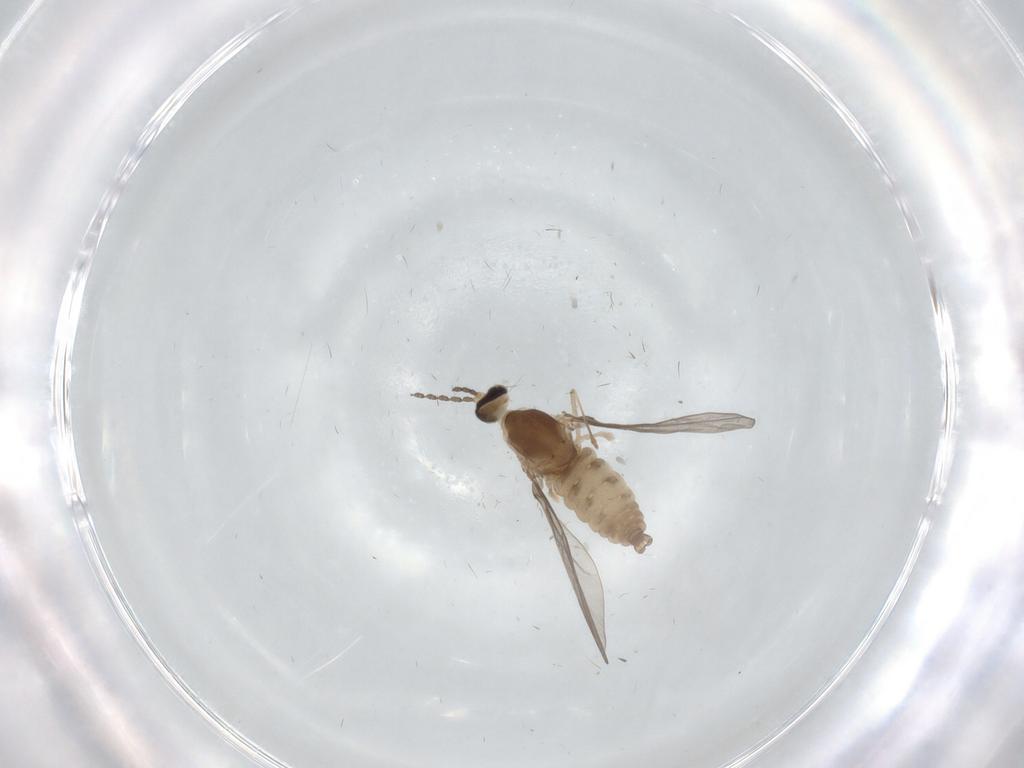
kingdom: Animalia
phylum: Arthropoda
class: Insecta
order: Diptera
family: Cecidomyiidae
